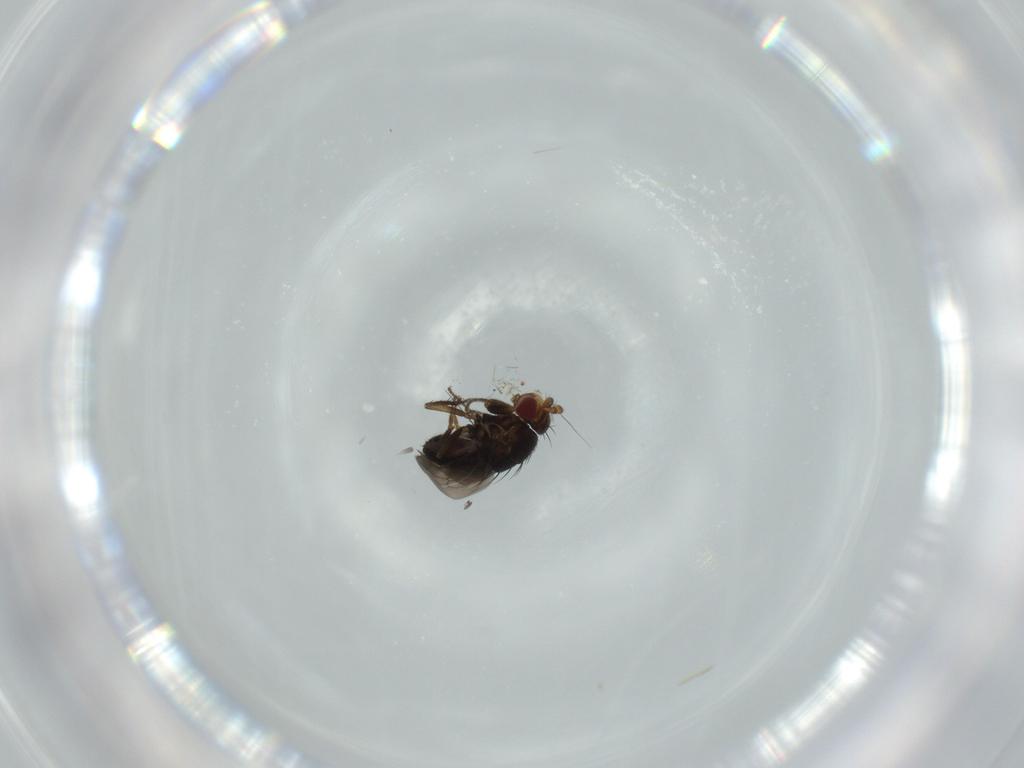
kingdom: Animalia
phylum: Arthropoda
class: Insecta
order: Diptera
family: Sphaeroceridae
